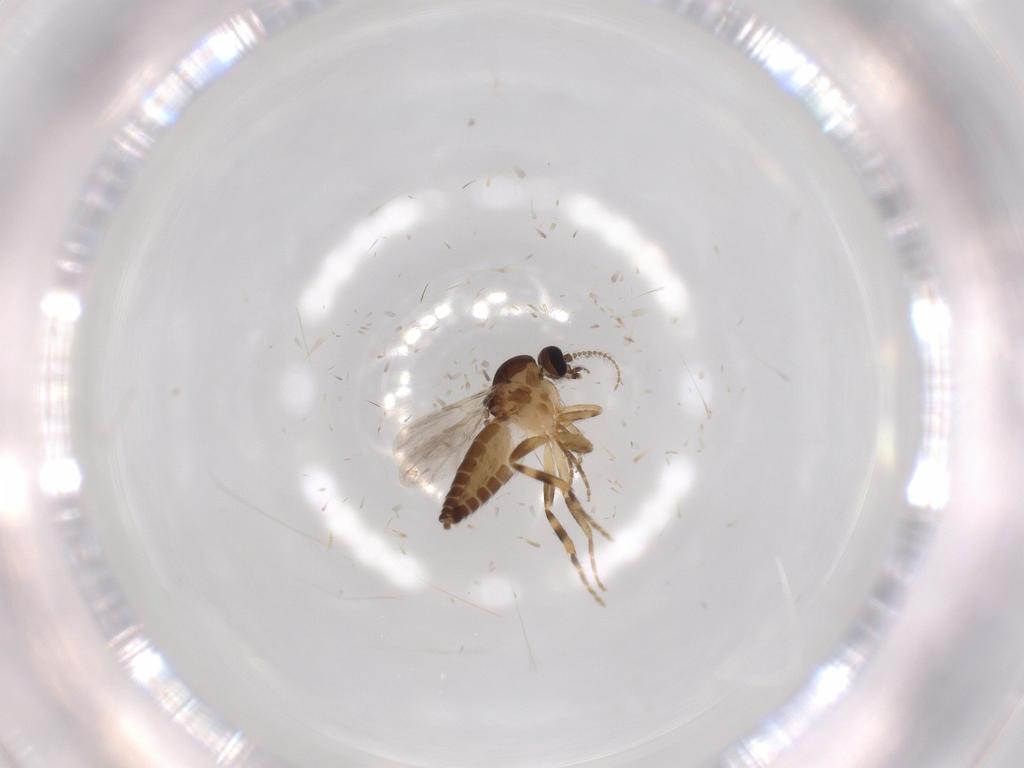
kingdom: Animalia
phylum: Arthropoda
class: Insecta
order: Diptera
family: Ceratopogonidae
